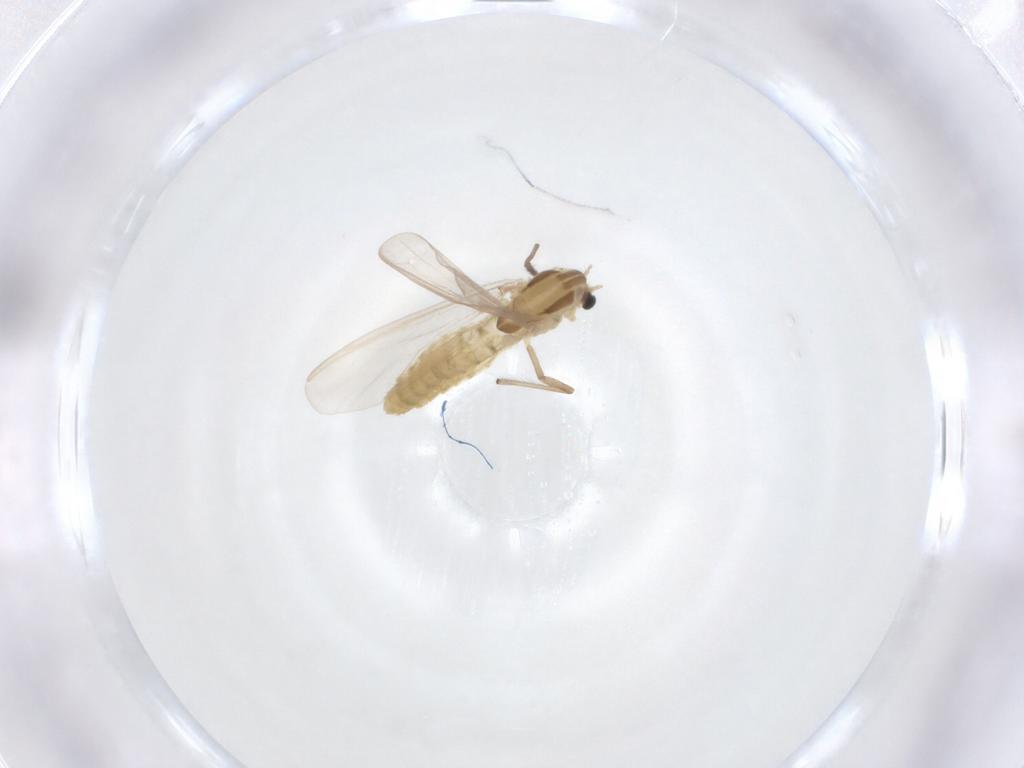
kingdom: Animalia
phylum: Arthropoda
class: Insecta
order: Diptera
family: Chironomidae
